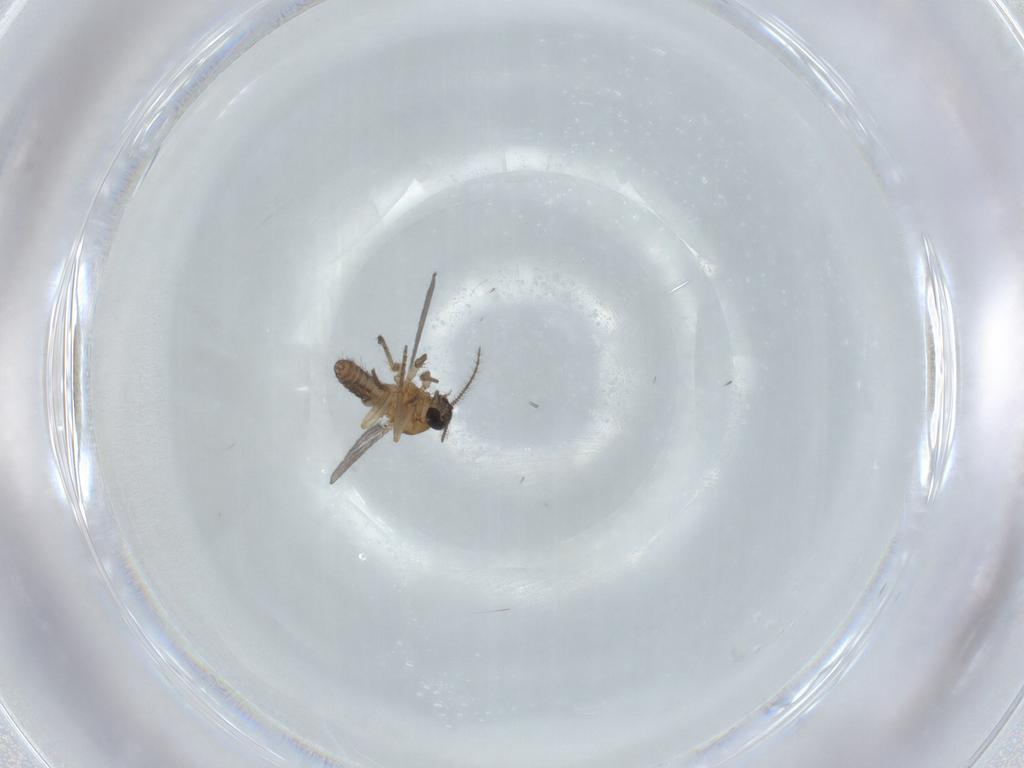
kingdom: Animalia
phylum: Arthropoda
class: Insecta
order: Diptera
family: Ceratopogonidae
